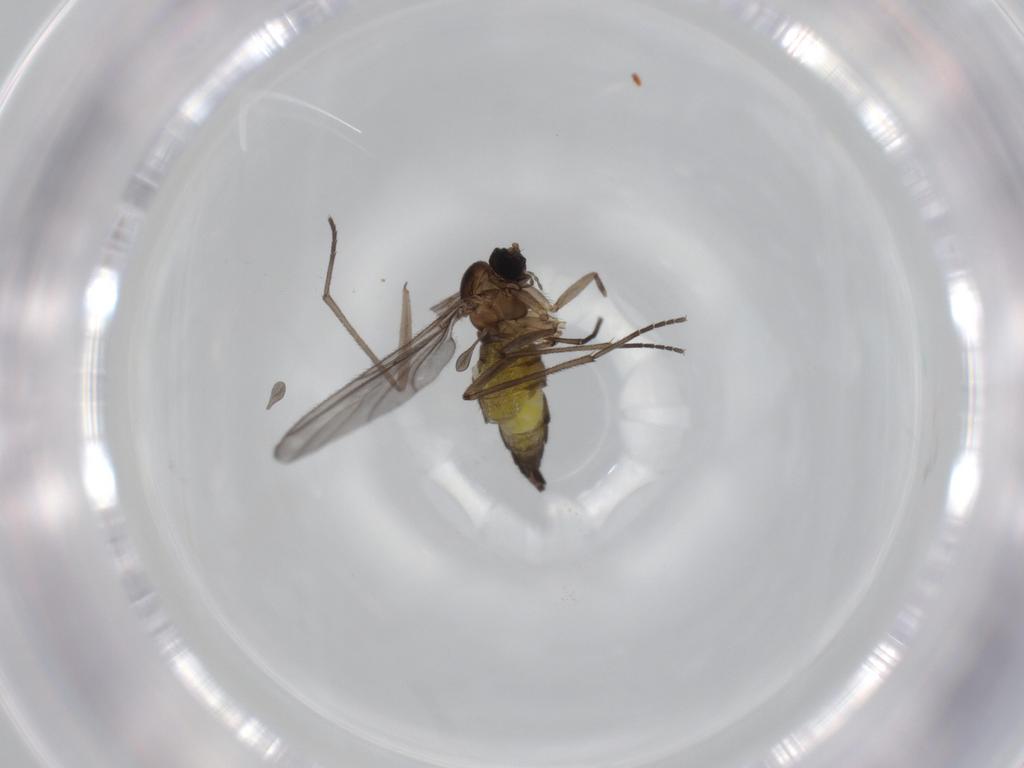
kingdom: Animalia
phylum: Arthropoda
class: Insecta
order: Diptera
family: Sciaridae
